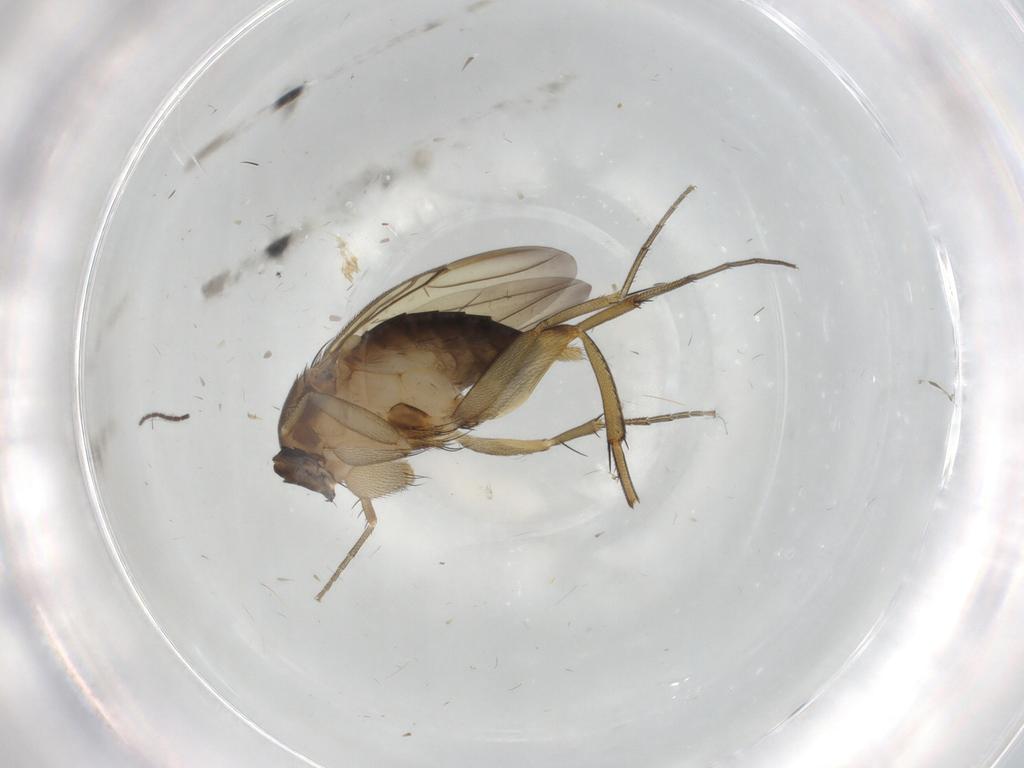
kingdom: Animalia
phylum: Arthropoda
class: Insecta
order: Diptera
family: Phoridae
